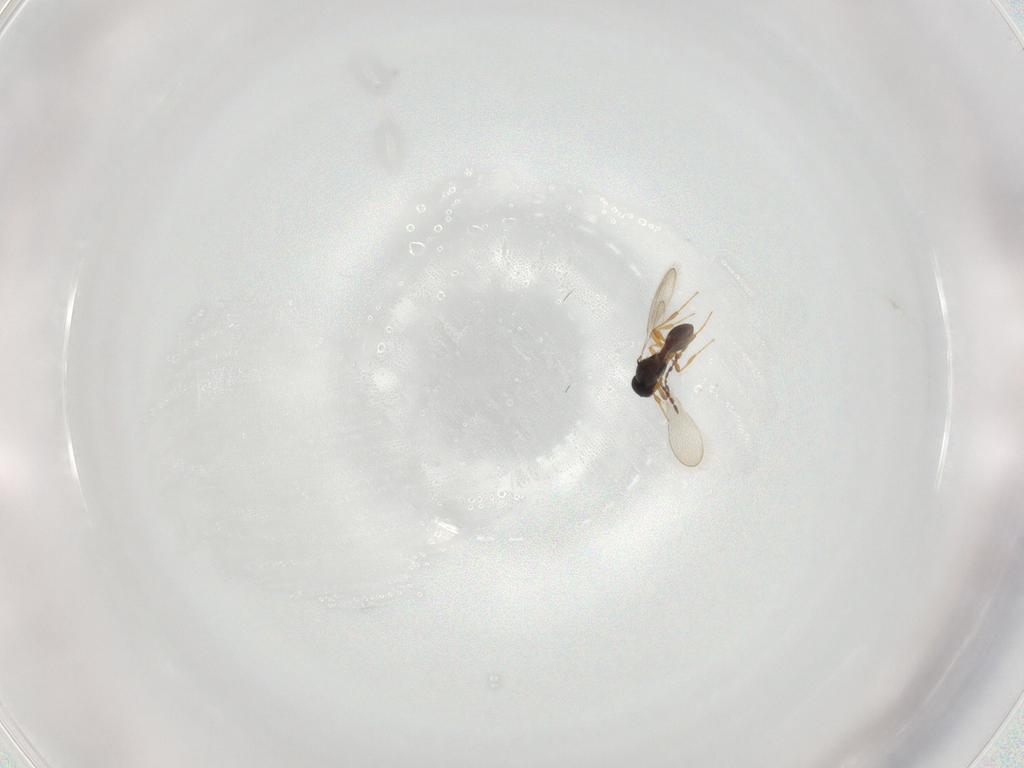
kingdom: Animalia
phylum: Arthropoda
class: Insecta
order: Hymenoptera
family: Platygastridae
